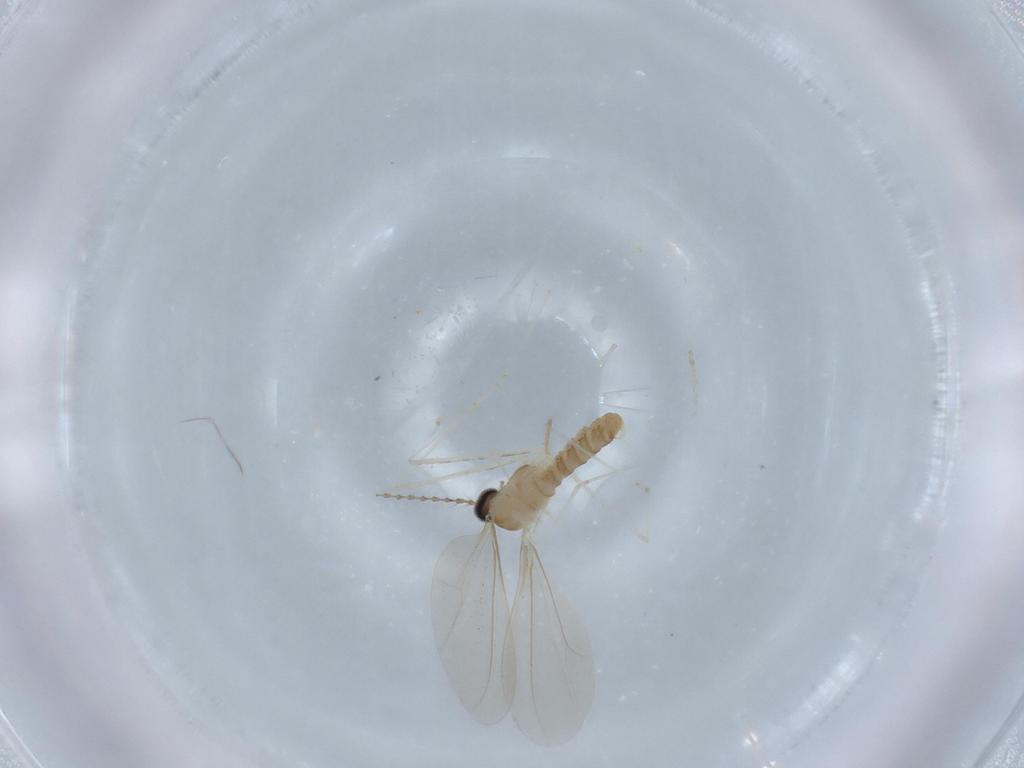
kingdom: Animalia
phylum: Arthropoda
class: Insecta
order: Diptera
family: Cecidomyiidae
